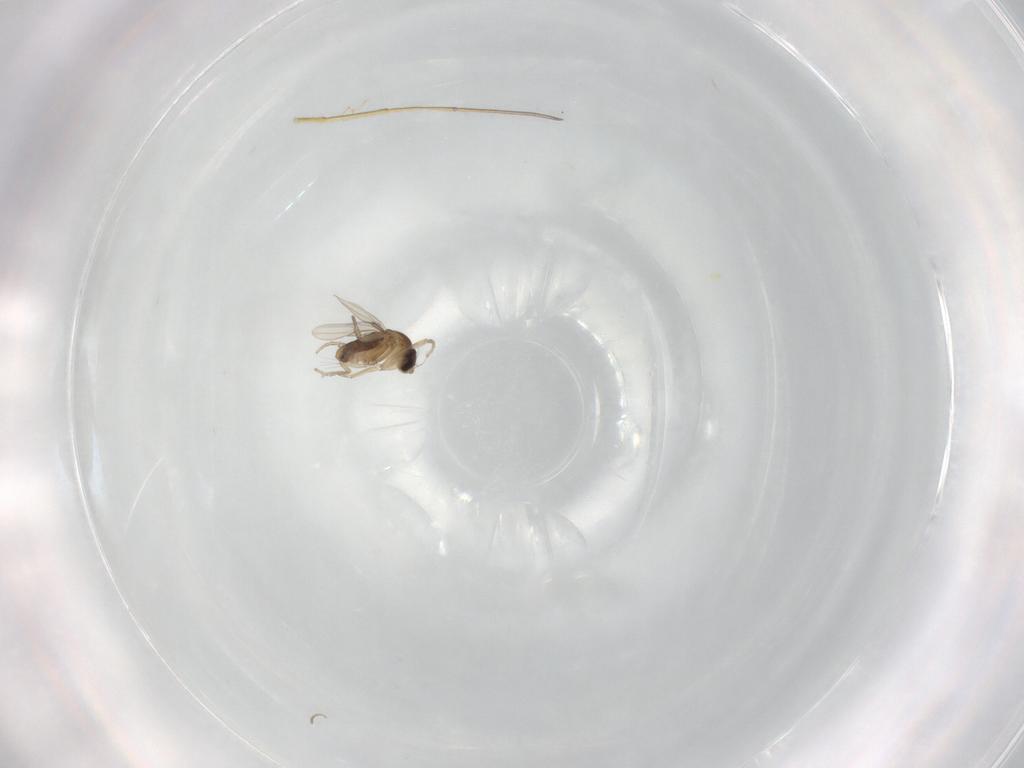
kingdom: Animalia
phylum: Arthropoda
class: Insecta
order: Diptera
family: Phoridae
